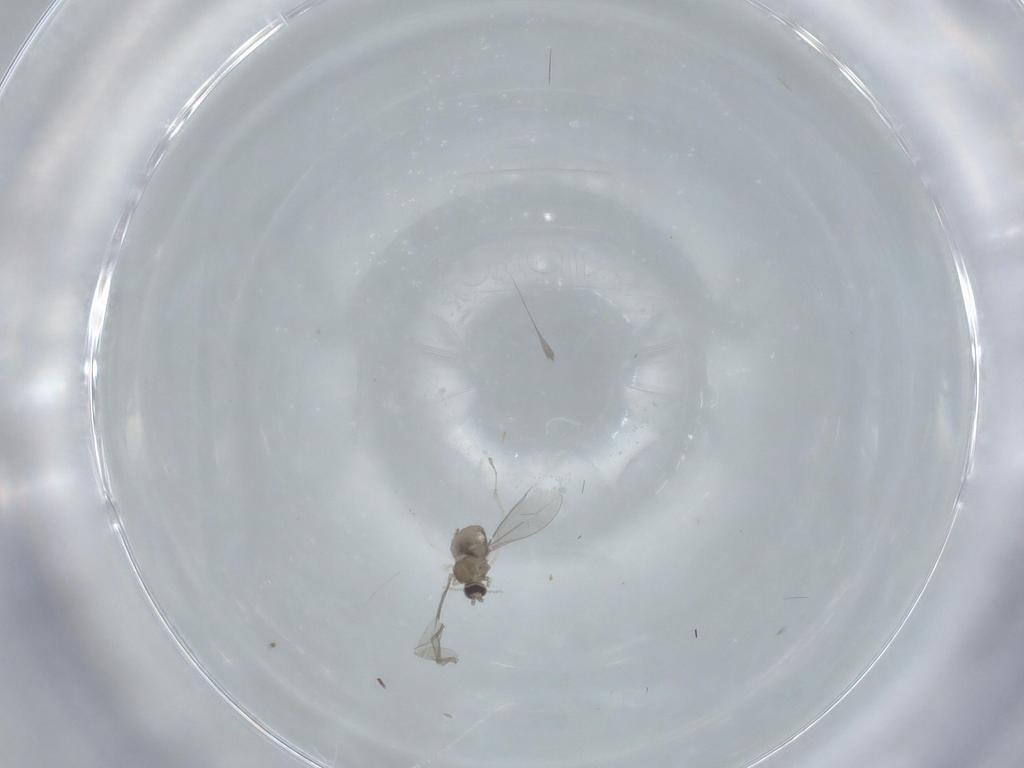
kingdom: Animalia
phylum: Arthropoda
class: Insecta
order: Diptera
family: Cecidomyiidae
